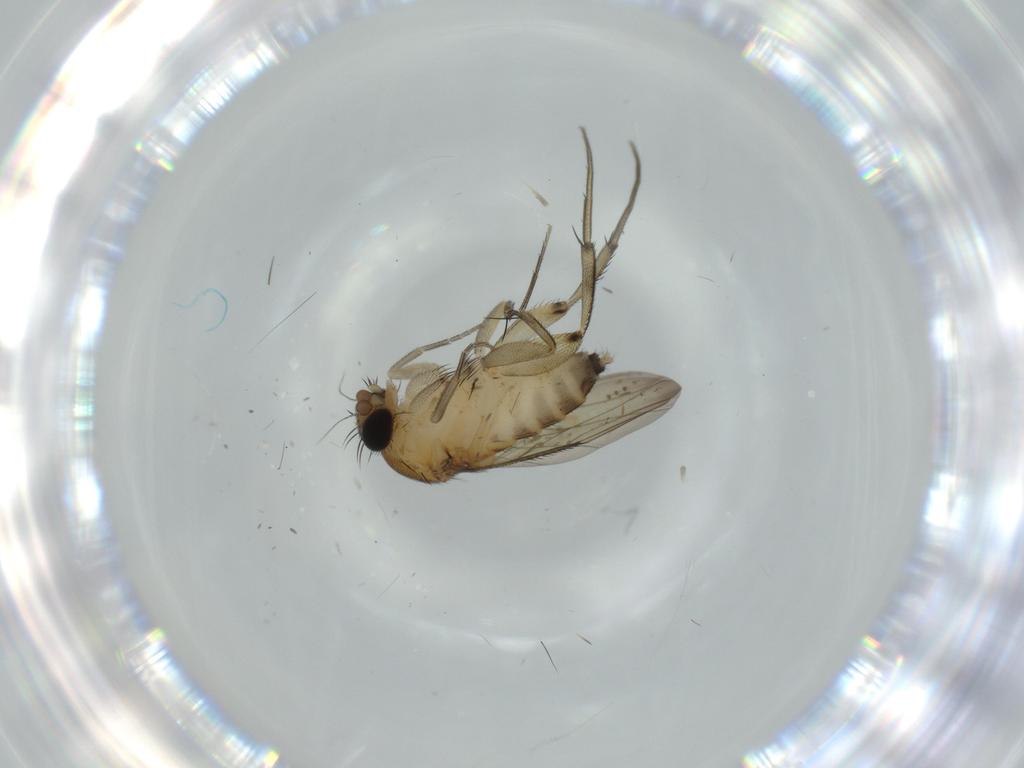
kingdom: Animalia
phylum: Arthropoda
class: Insecta
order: Diptera
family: Phoridae
